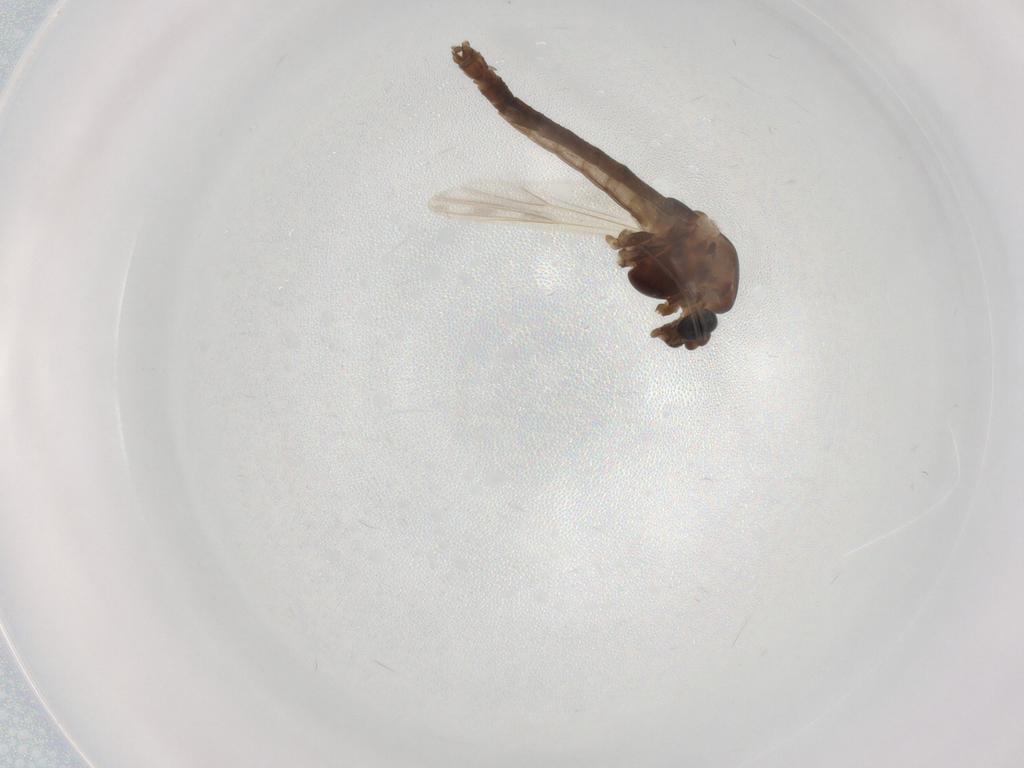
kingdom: Animalia
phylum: Arthropoda
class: Insecta
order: Diptera
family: Chironomidae
